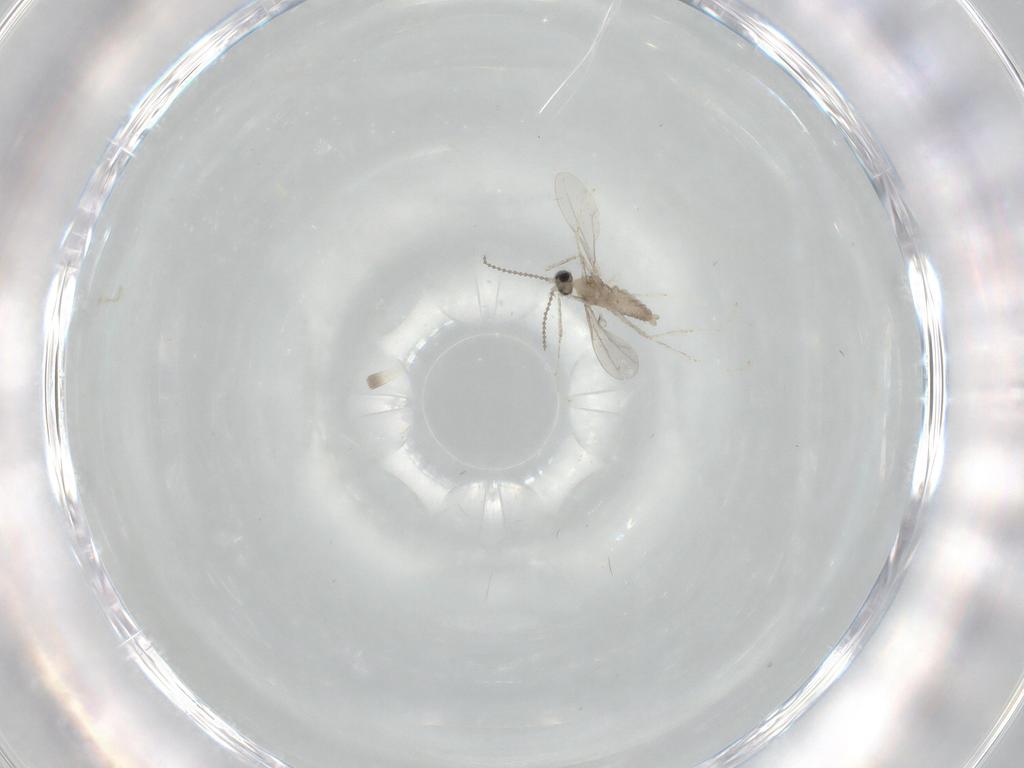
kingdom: Animalia
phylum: Arthropoda
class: Insecta
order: Diptera
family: Cecidomyiidae
